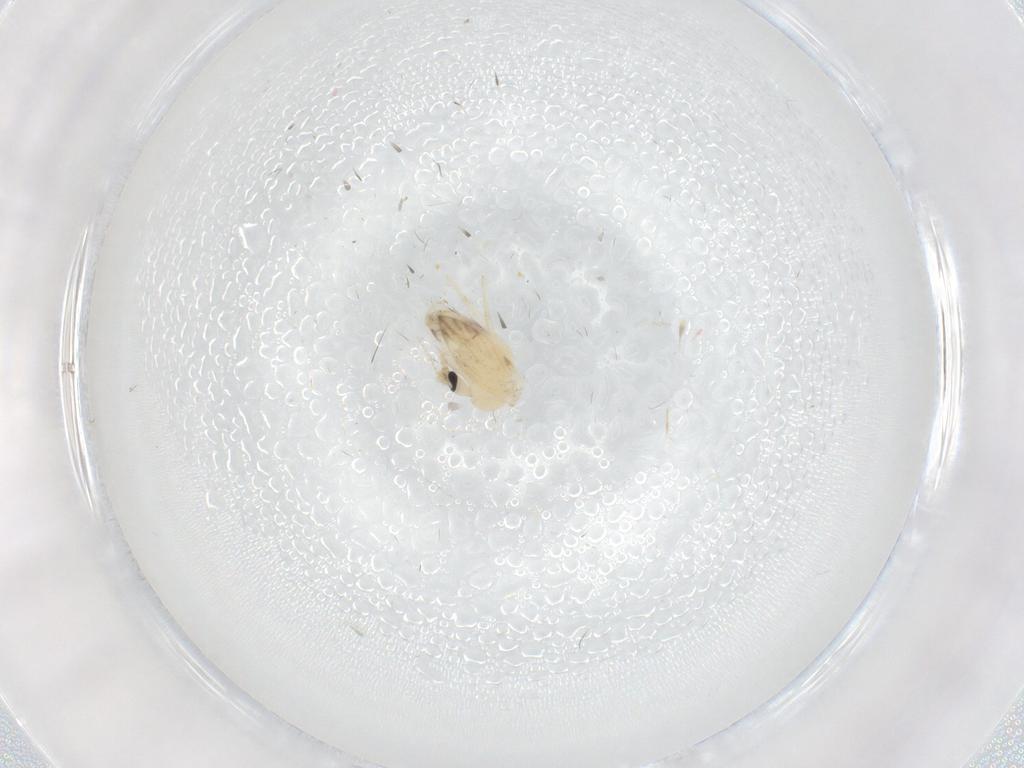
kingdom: Animalia
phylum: Arthropoda
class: Insecta
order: Diptera
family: Psychodidae
